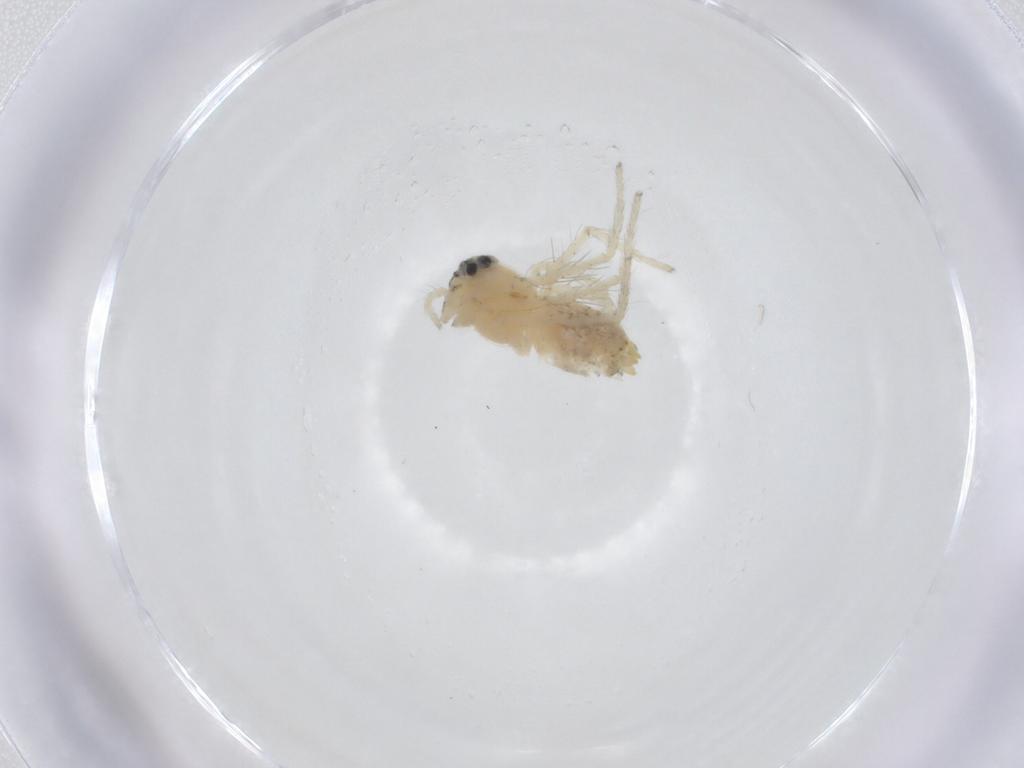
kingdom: Animalia
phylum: Arthropoda
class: Arachnida
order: Araneae
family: Oxyopidae
